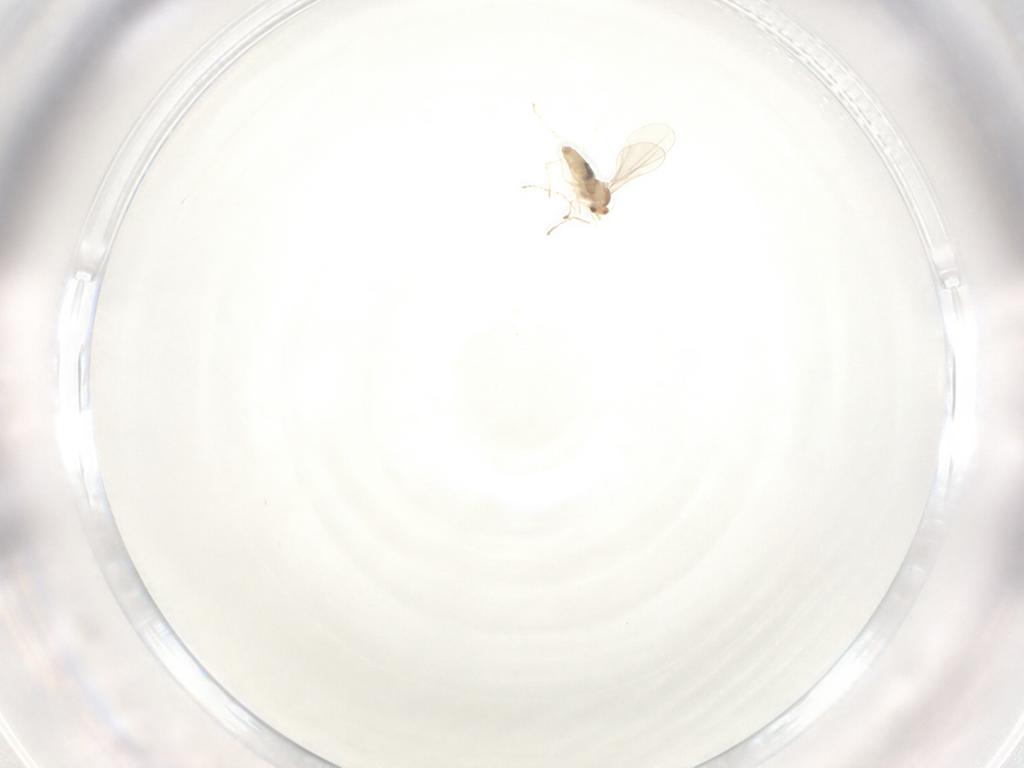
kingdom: Animalia
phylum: Arthropoda
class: Insecta
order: Diptera
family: Cecidomyiidae
